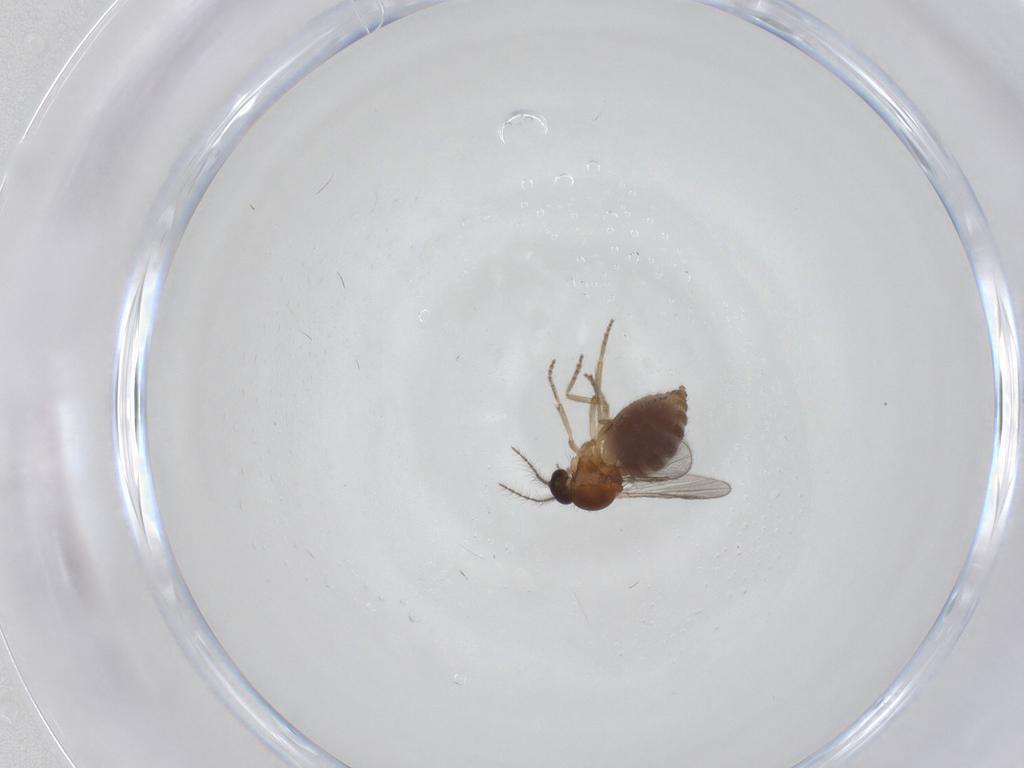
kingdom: Animalia
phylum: Arthropoda
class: Insecta
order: Diptera
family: Ceratopogonidae
